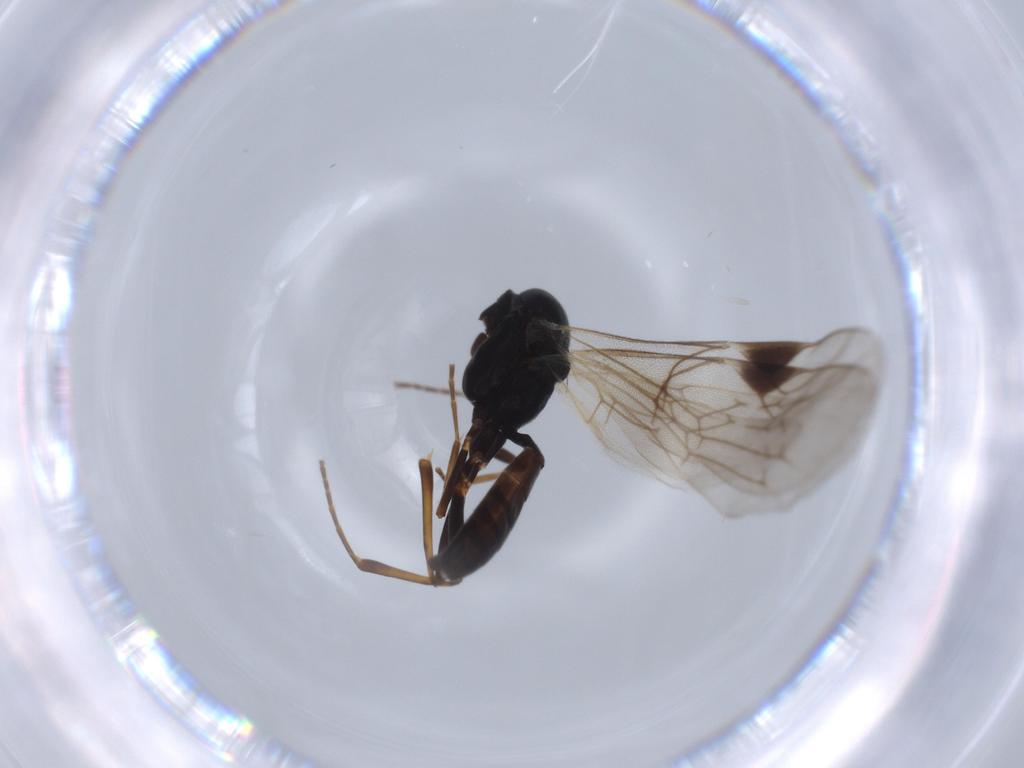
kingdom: Animalia
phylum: Arthropoda
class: Insecta
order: Hymenoptera
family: Ichneumonidae
